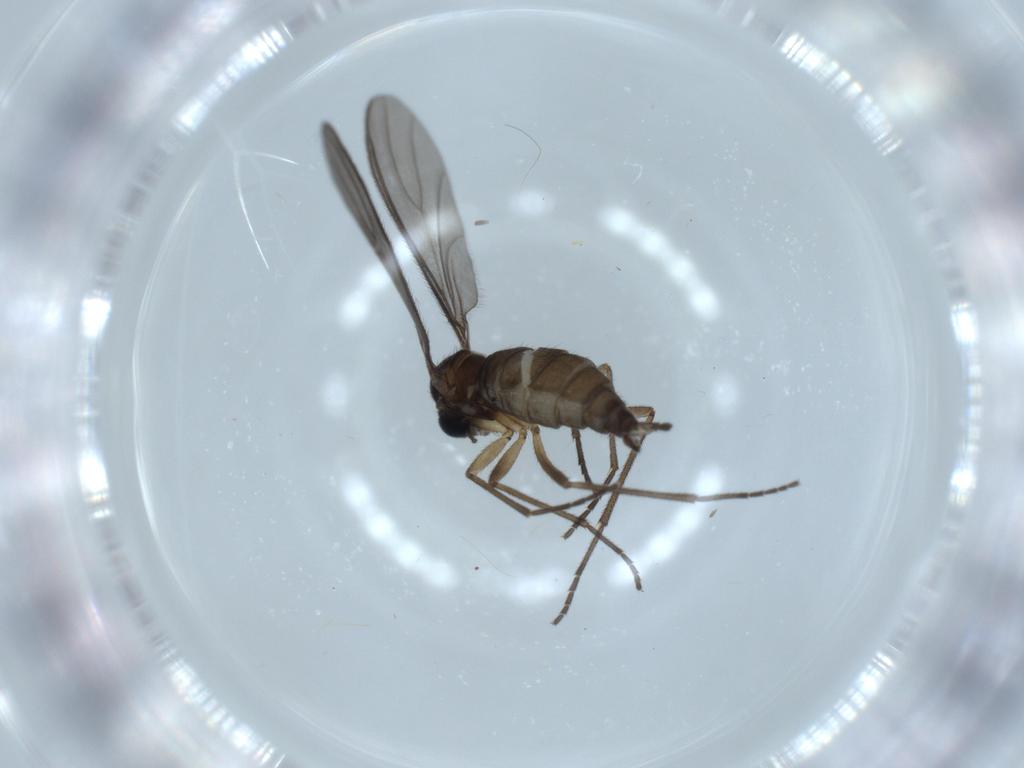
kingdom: Animalia
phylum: Arthropoda
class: Insecta
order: Diptera
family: Sciaridae
